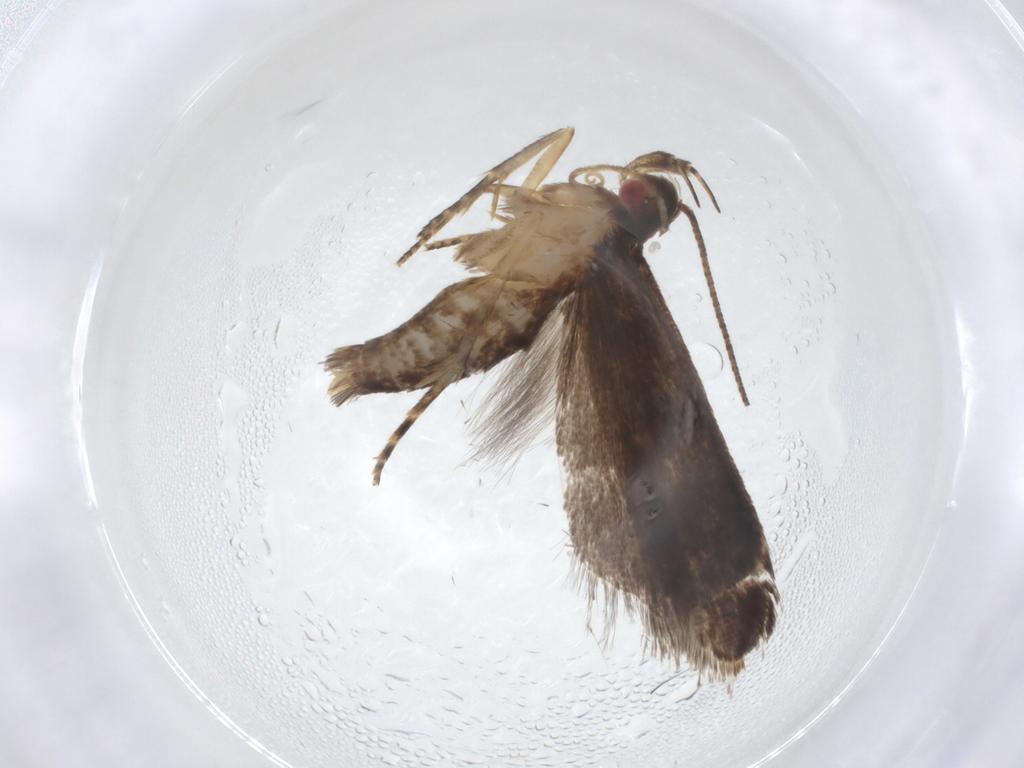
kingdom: Animalia
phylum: Arthropoda
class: Insecta
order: Lepidoptera
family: Gelechiidae
